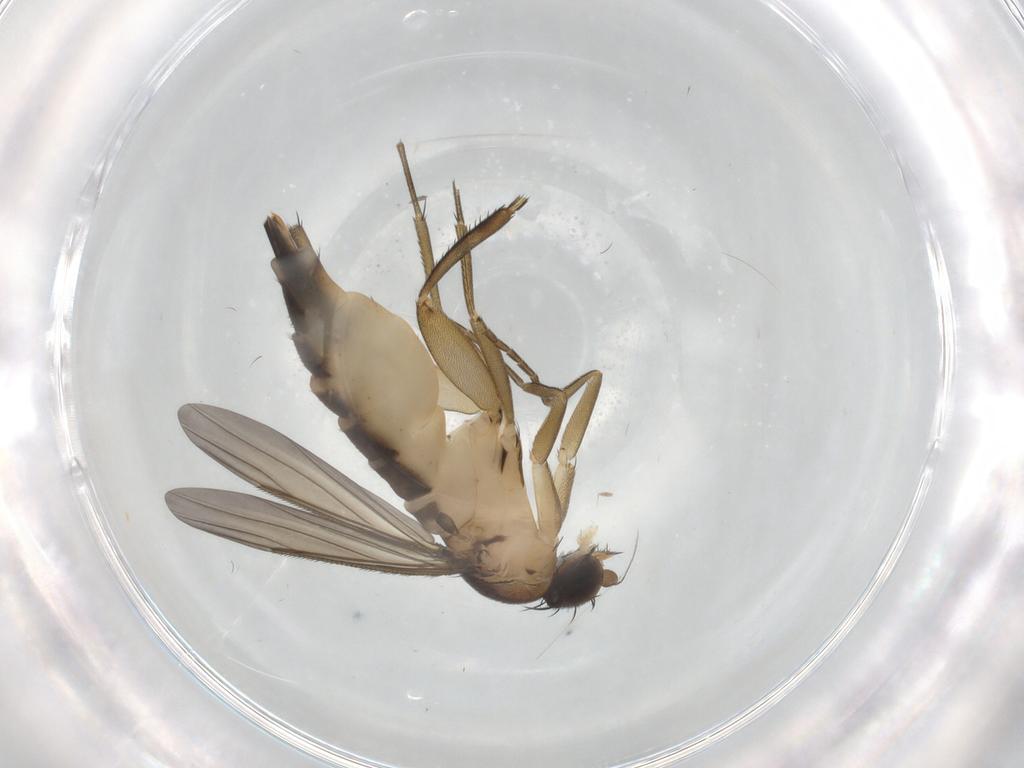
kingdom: Animalia
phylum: Arthropoda
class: Insecta
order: Diptera
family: Phoridae
